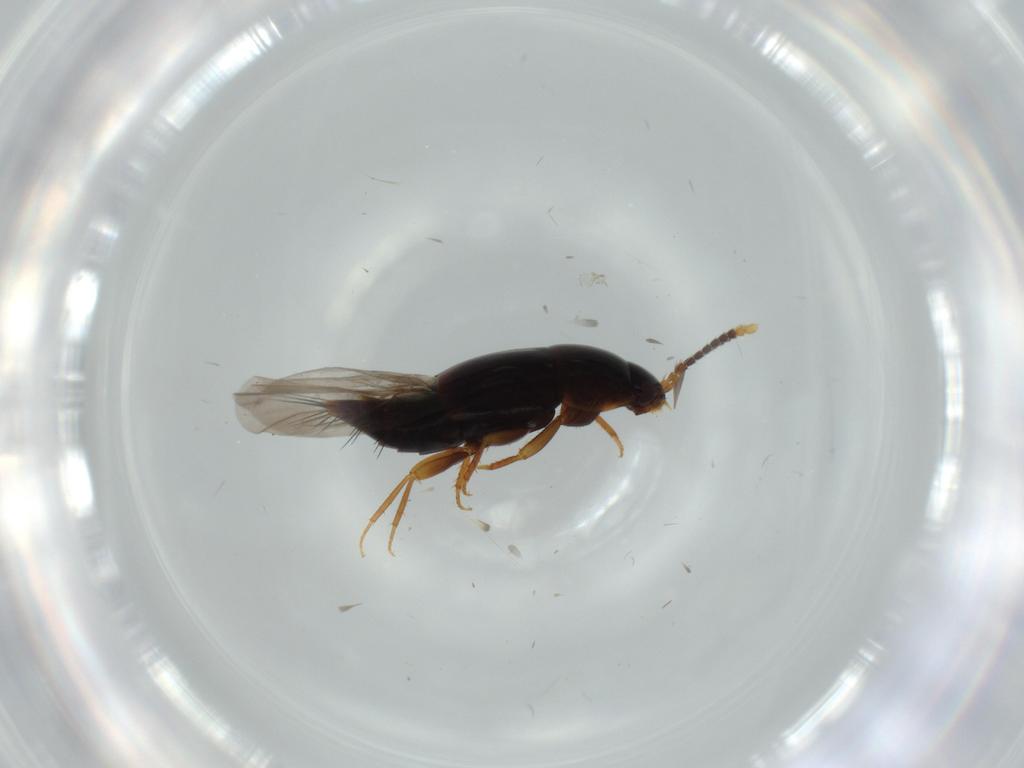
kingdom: Animalia
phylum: Arthropoda
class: Insecta
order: Coleoptera
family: Staphylinidae
